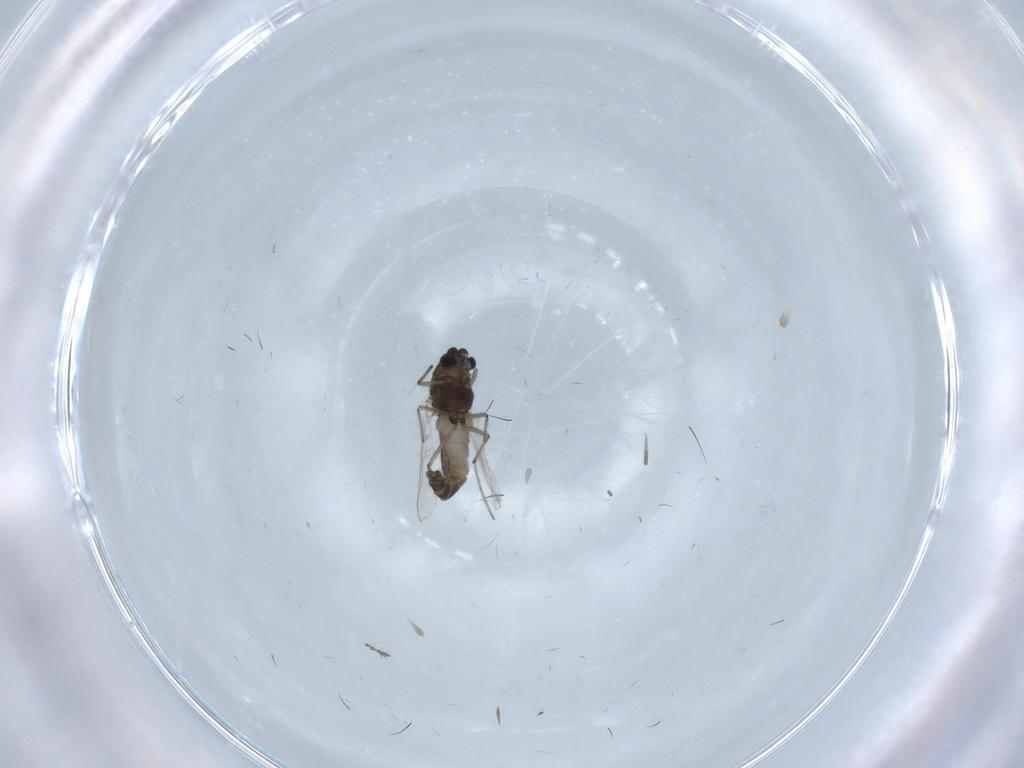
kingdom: Animalia
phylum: Arthropoda
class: Insecta
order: Diptera
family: Chironomidae
